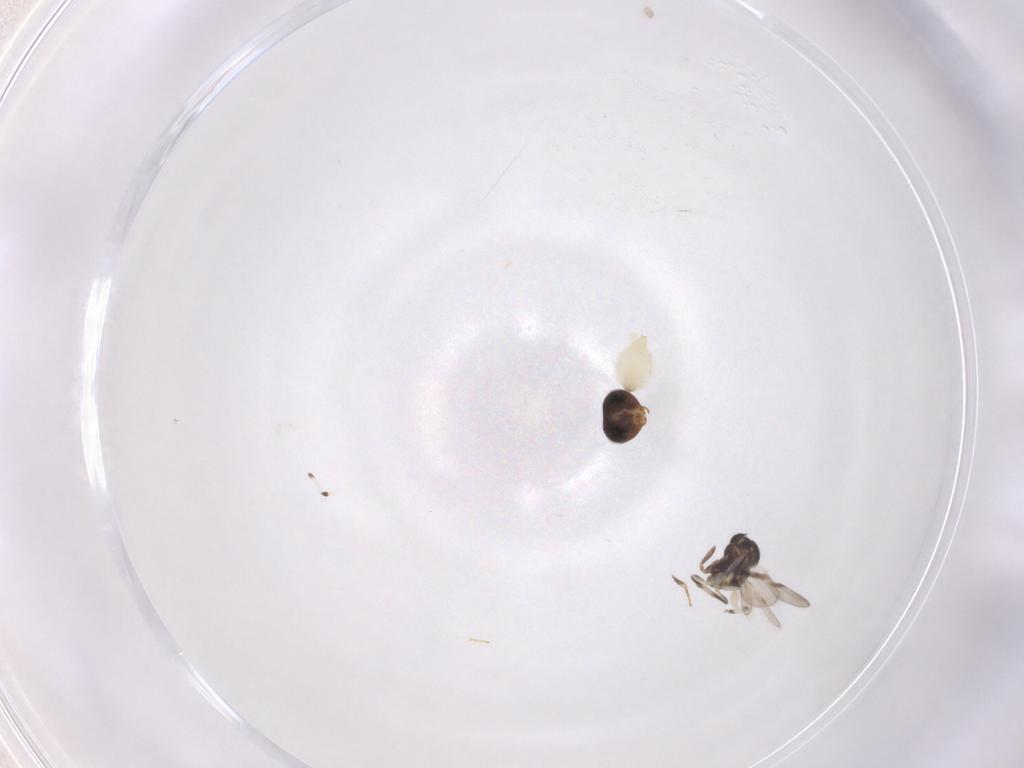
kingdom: Animalia
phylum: Arthropoda
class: Insecta
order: Hymenoptera
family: Scelionidae
